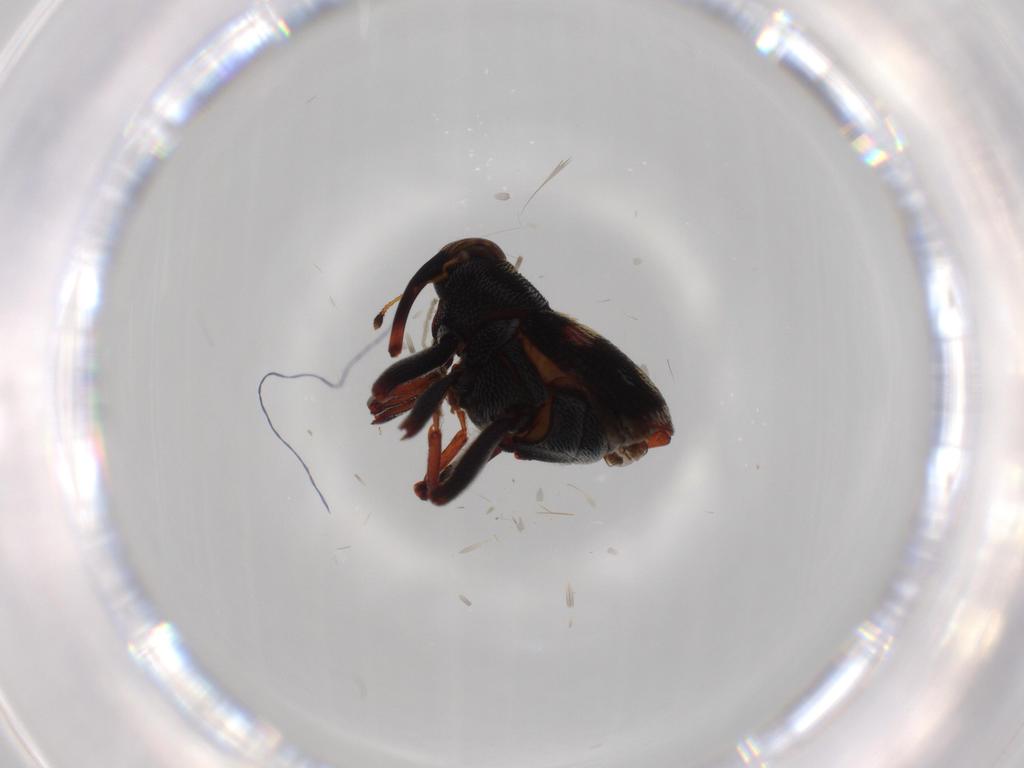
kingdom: Animalia
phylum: Arthropoda
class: Insecta
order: Coleoptera
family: Curculionidae
